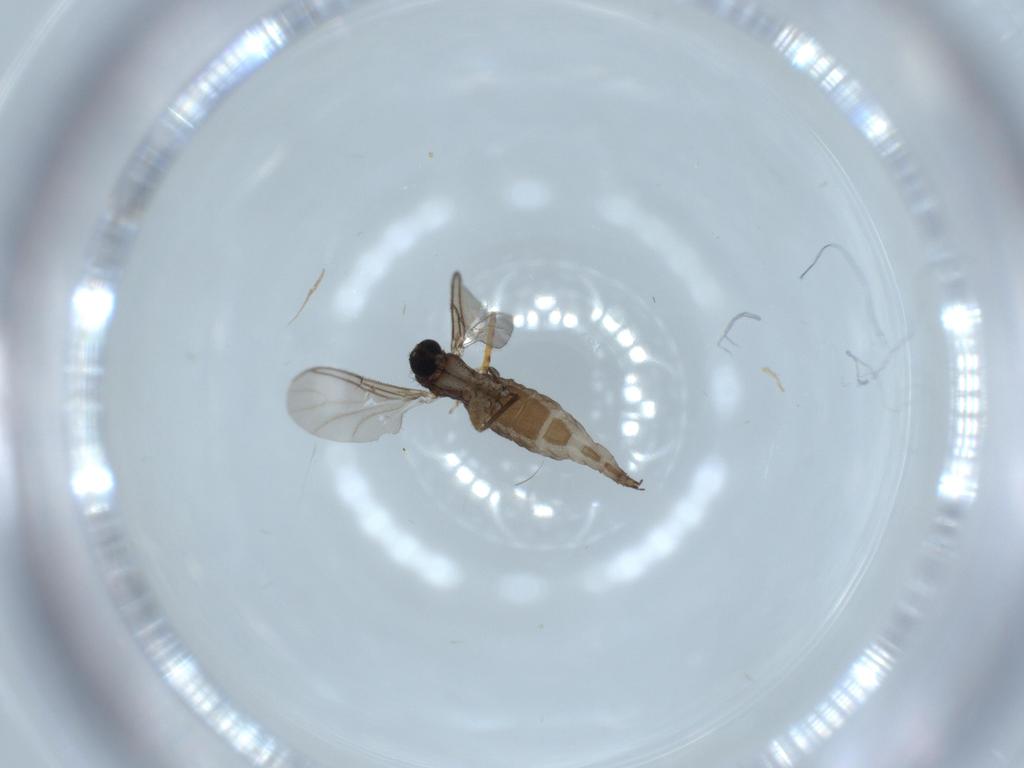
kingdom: Animalia
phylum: Arthropoda
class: Insecta
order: Diptera
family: Sciaridae
